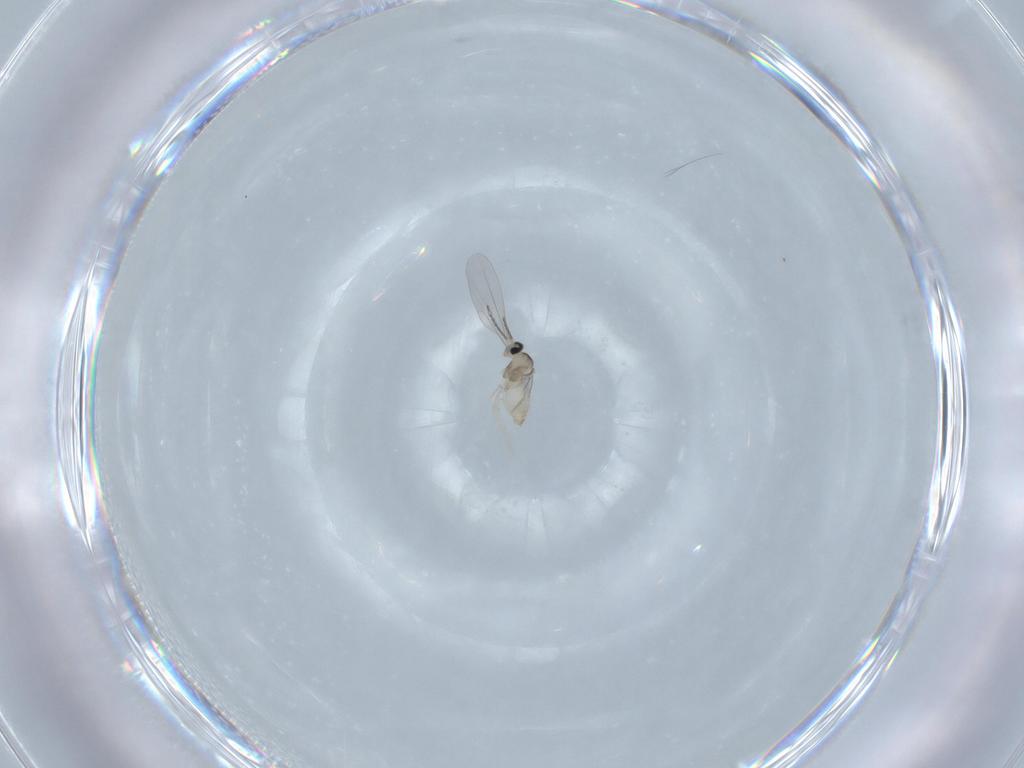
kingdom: Animalia
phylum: Arthropoda
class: Insecta
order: Diptera
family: Cecidomyiidae
